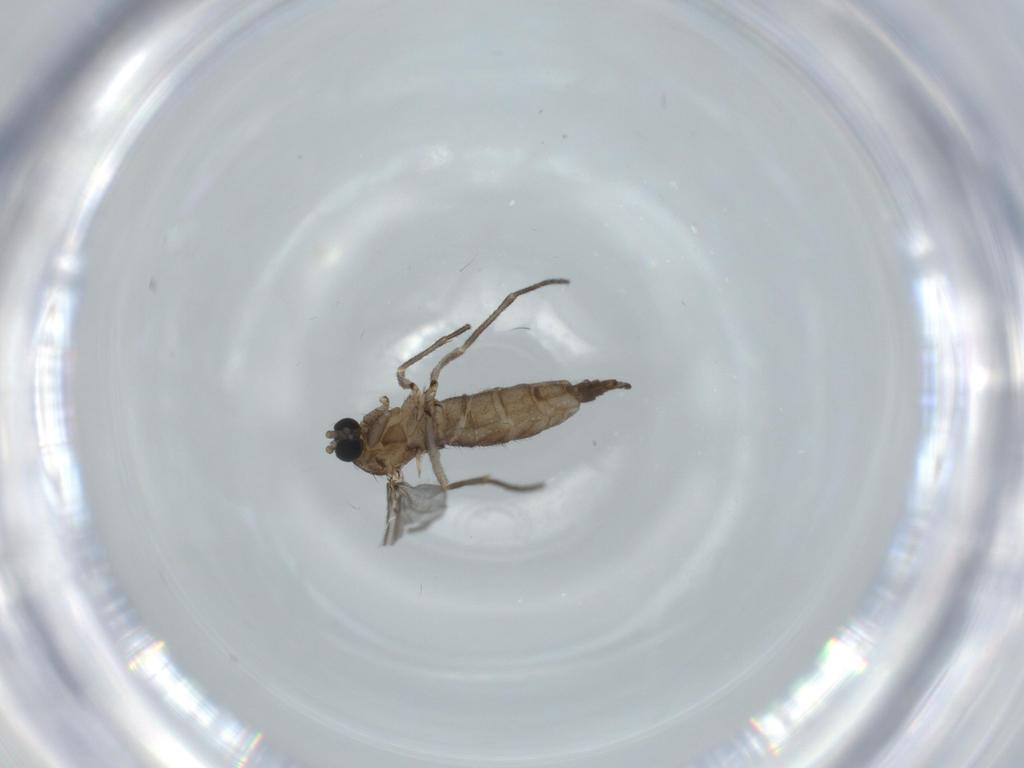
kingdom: Animalia
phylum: Arthropoda
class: Insecta
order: Diptera
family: Sciaridae
